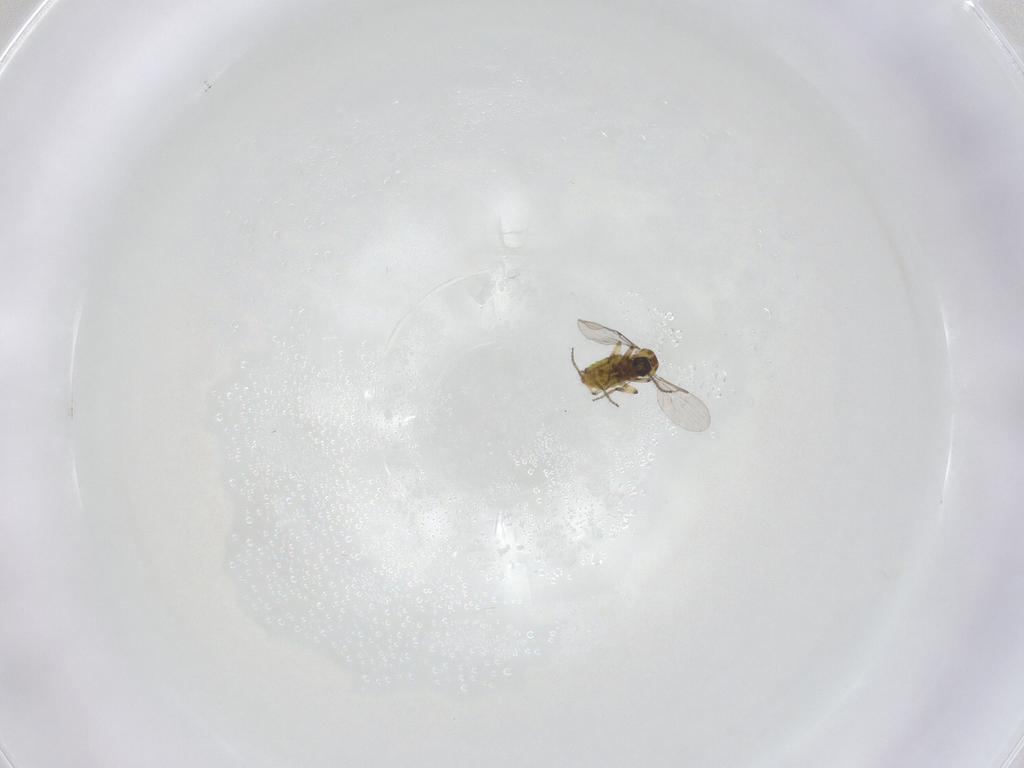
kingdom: Animalia
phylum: Arthropoda
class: Insecta
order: Diptera
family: Ceratopogonidae
